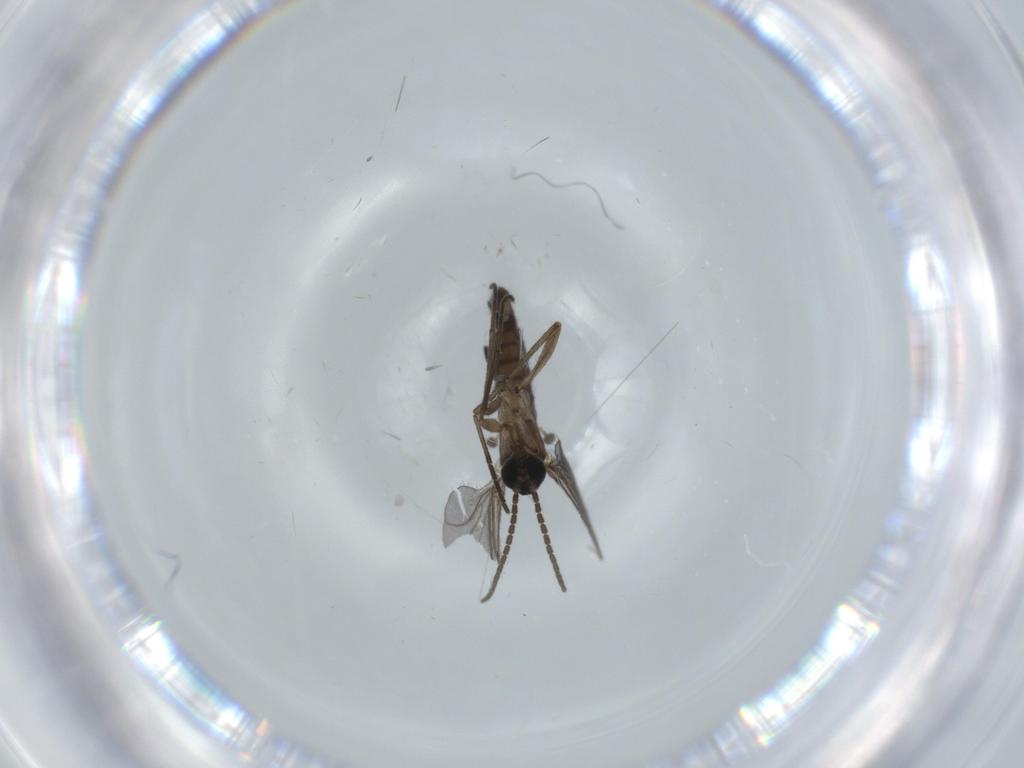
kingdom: Animalia
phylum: Arthropoda
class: Insecta
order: Diptera
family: Sciaridae
